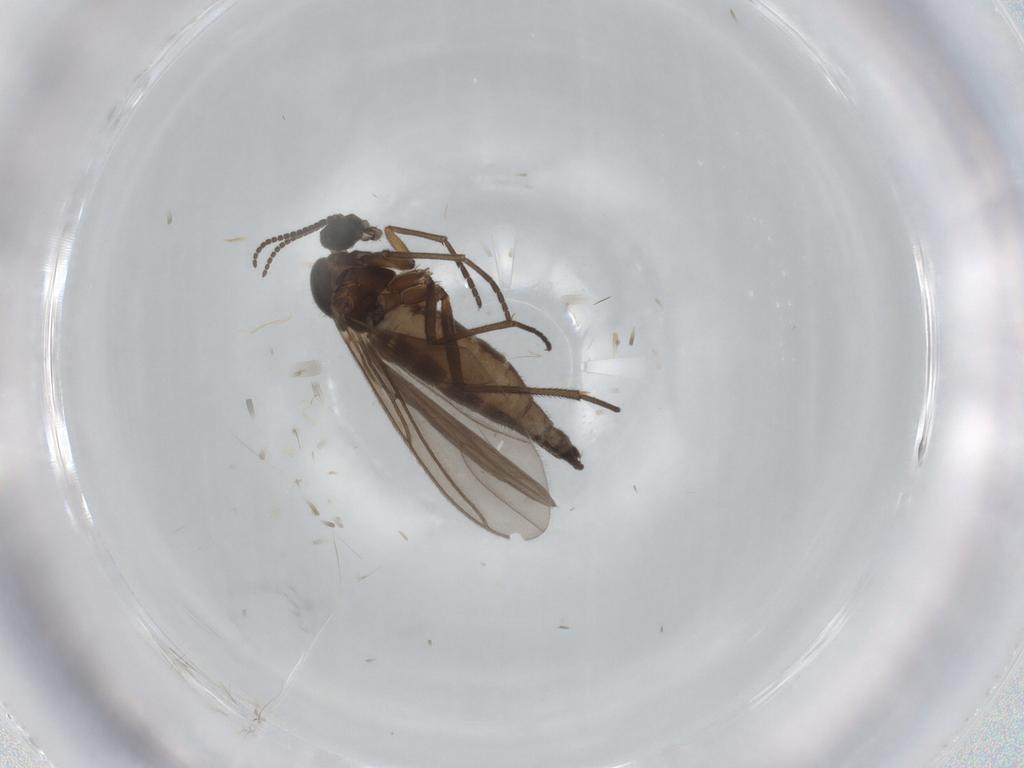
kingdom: Animalia
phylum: Arthropoda
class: Insecta
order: Diptera
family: Sciaridae
